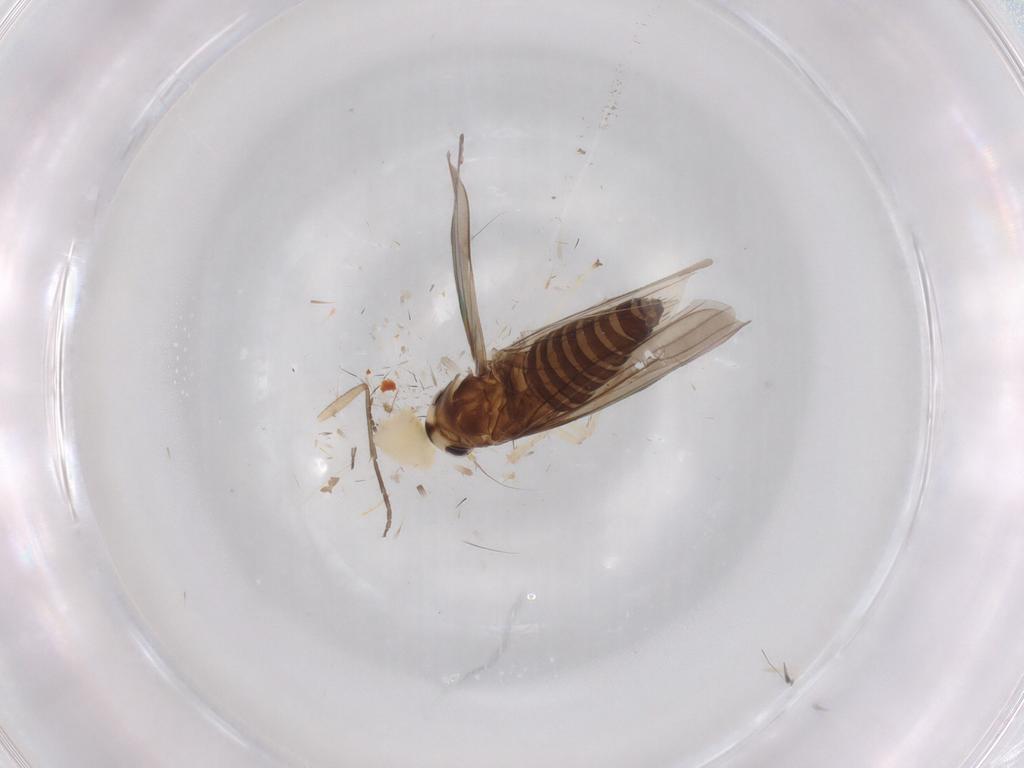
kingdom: Animalia
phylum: Arthropoda
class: Insecta
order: Hemiptera
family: Cicadellidae
